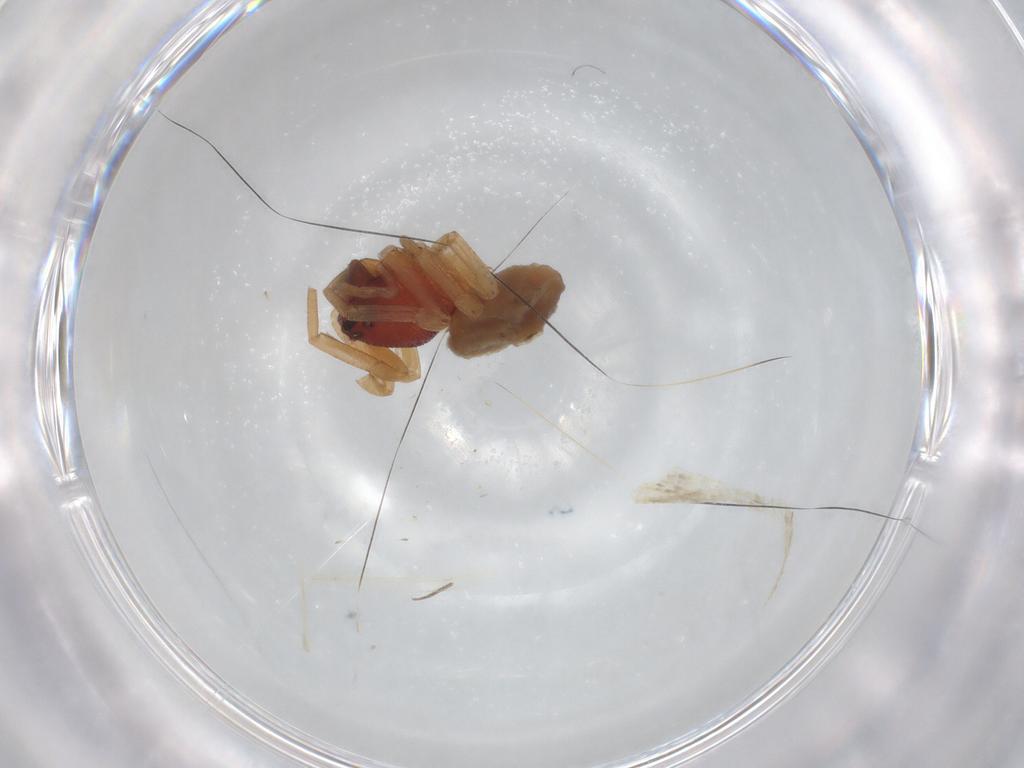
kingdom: Animalia
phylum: Arthropoda
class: Arachnida
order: Araneae
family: Trachelidae
